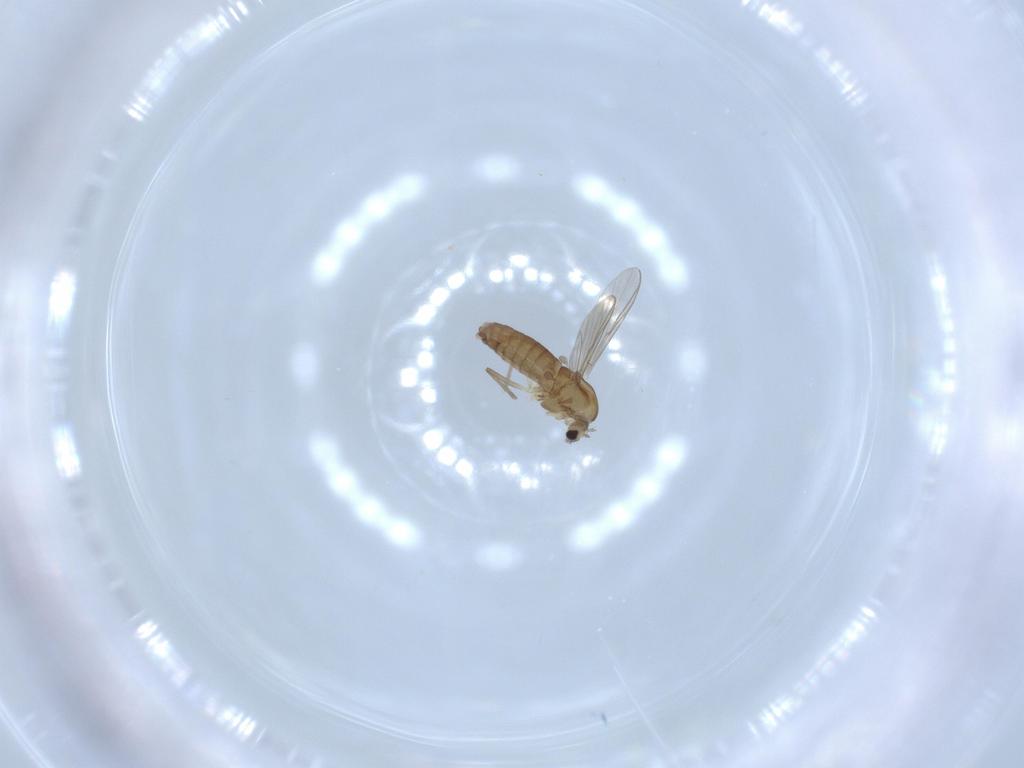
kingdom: Animalia
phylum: Arthropoda
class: Insecta
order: Diptera
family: Chironomidae
